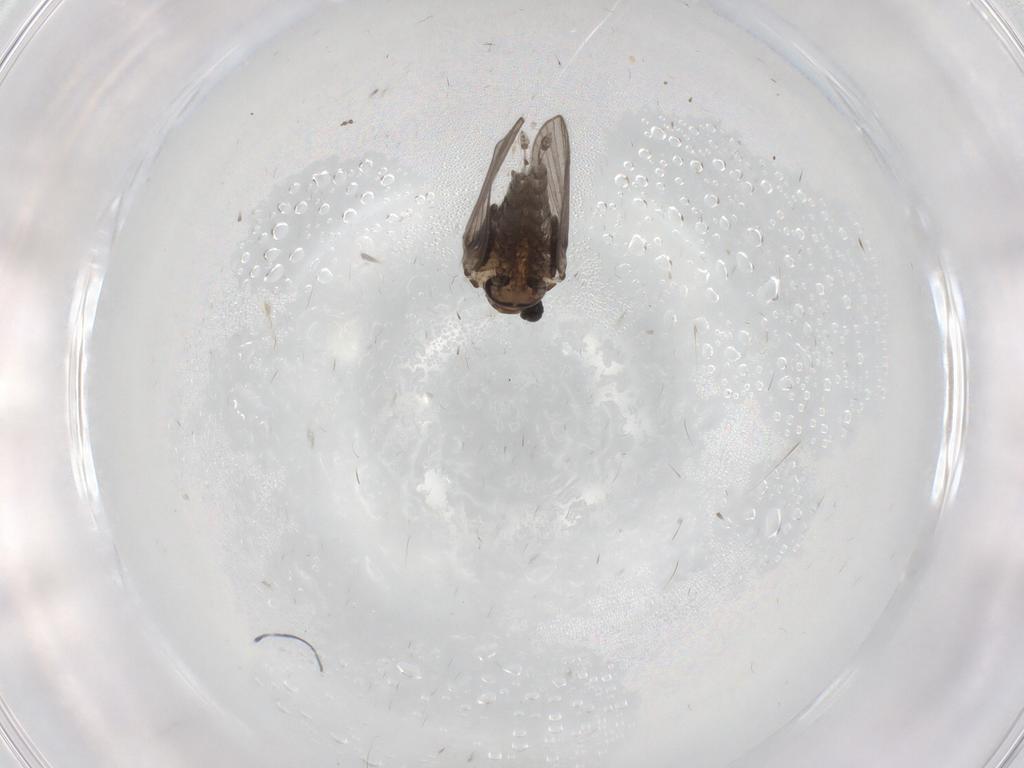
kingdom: Animalia
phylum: Arthropoda
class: Insecta
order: Diptera
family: Psychodidae
